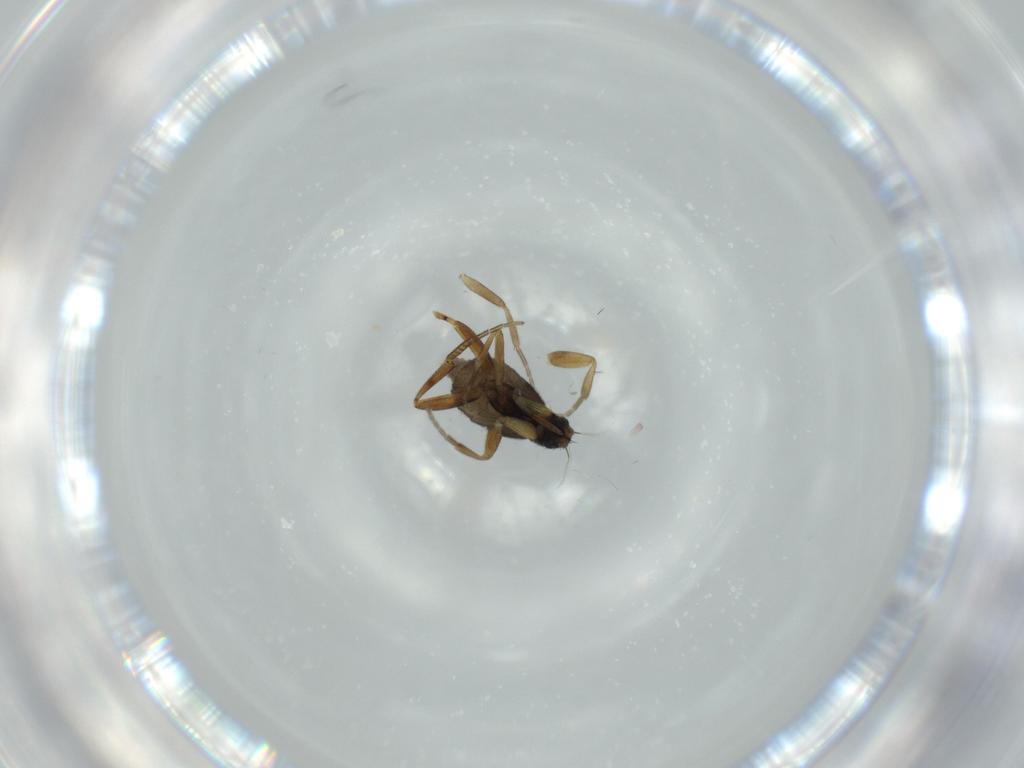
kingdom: Animalia
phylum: Arthropoda
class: Insecta
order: Diptera
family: Phoridae
